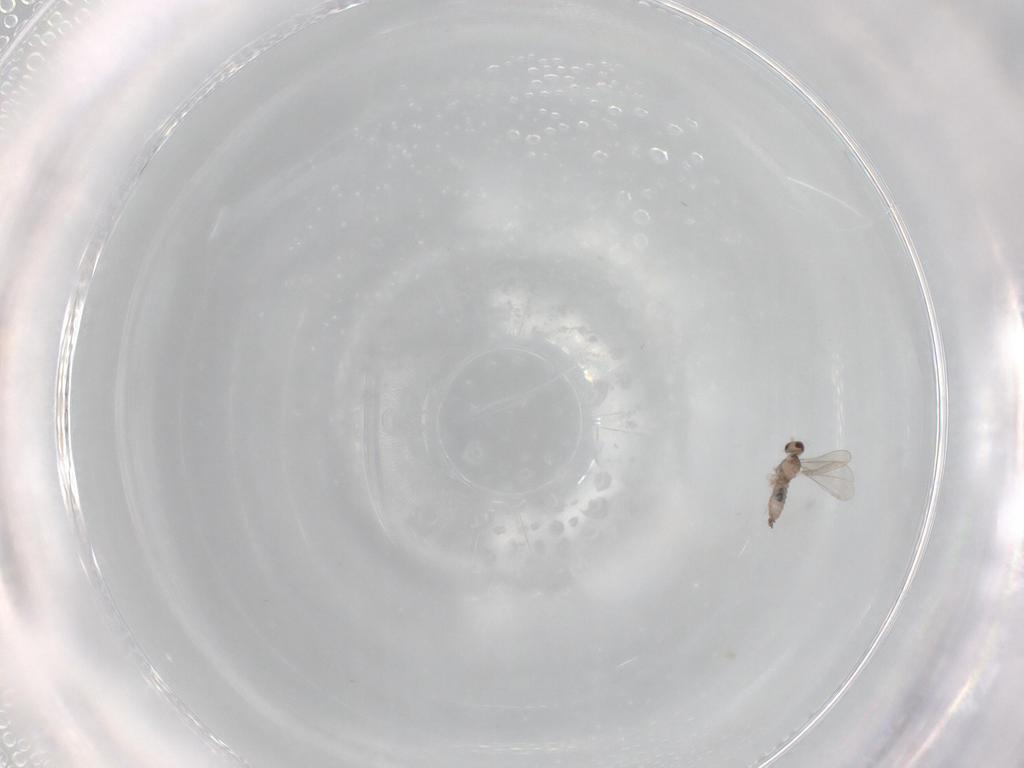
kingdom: Animalia
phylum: Arthropoda
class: Insecta
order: Diptera
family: Cecidomyiidae
